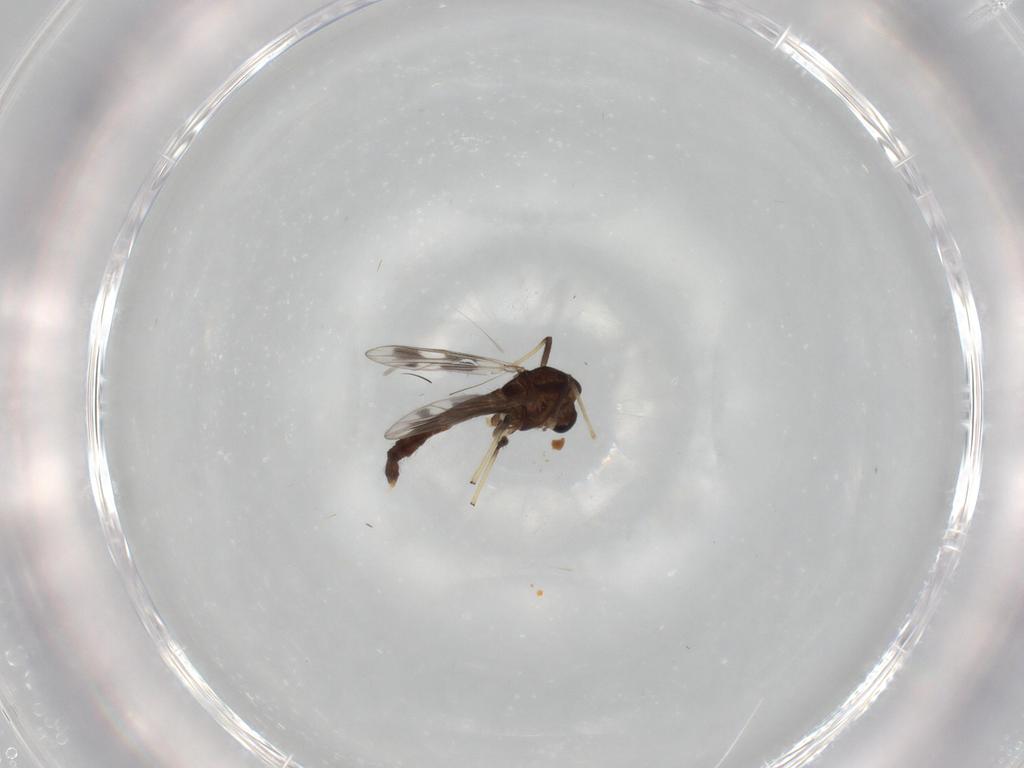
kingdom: Animalia
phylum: Arthropoda
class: Insecta
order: Diptera
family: Chironomidae
